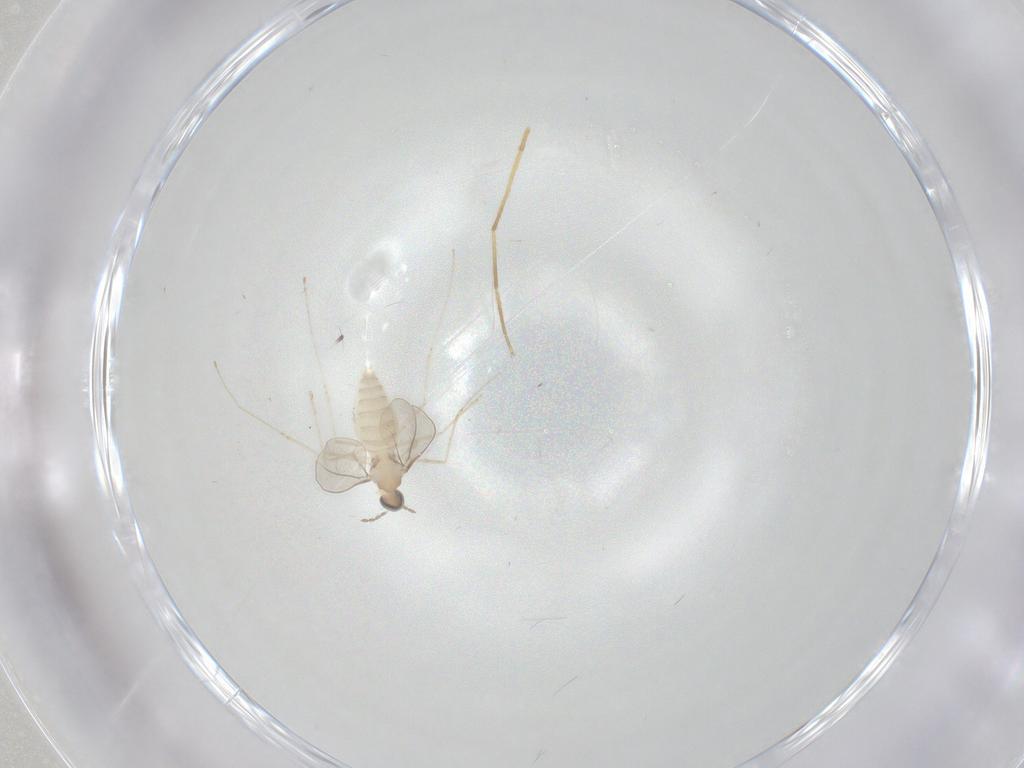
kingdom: Animalia
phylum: Arthropoda
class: Insecta
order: Diptera
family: Cecidomyiidae
